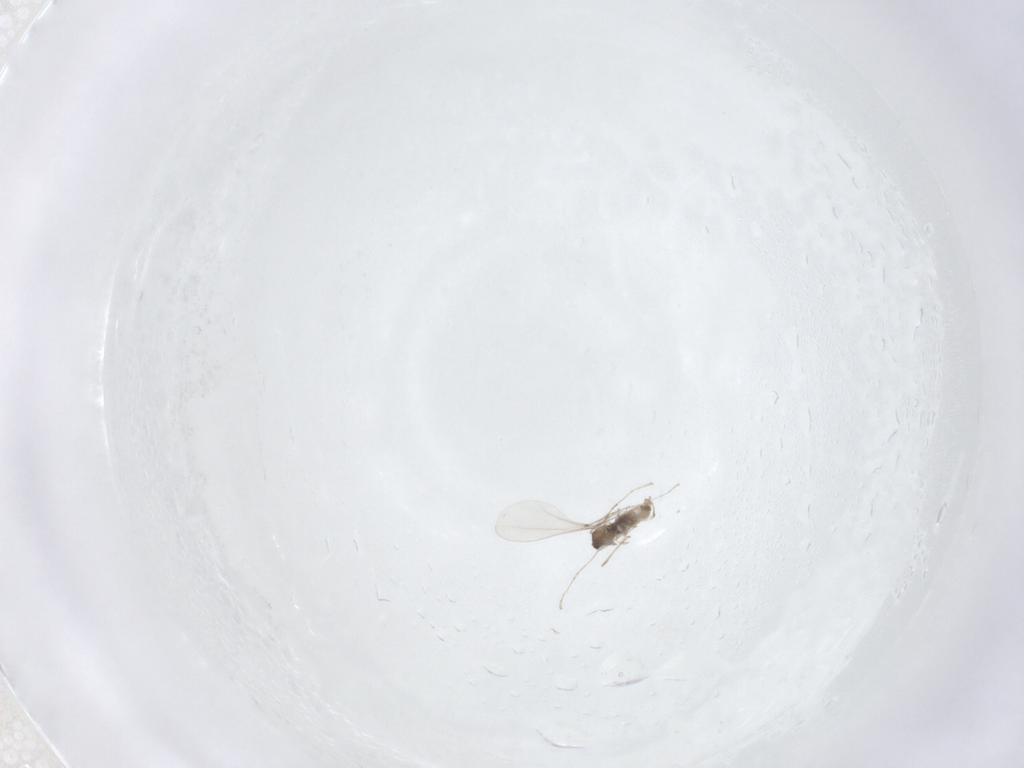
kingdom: Animalia
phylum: Arthropoda
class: Insecta
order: Diptera
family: Cecidomyiidae
